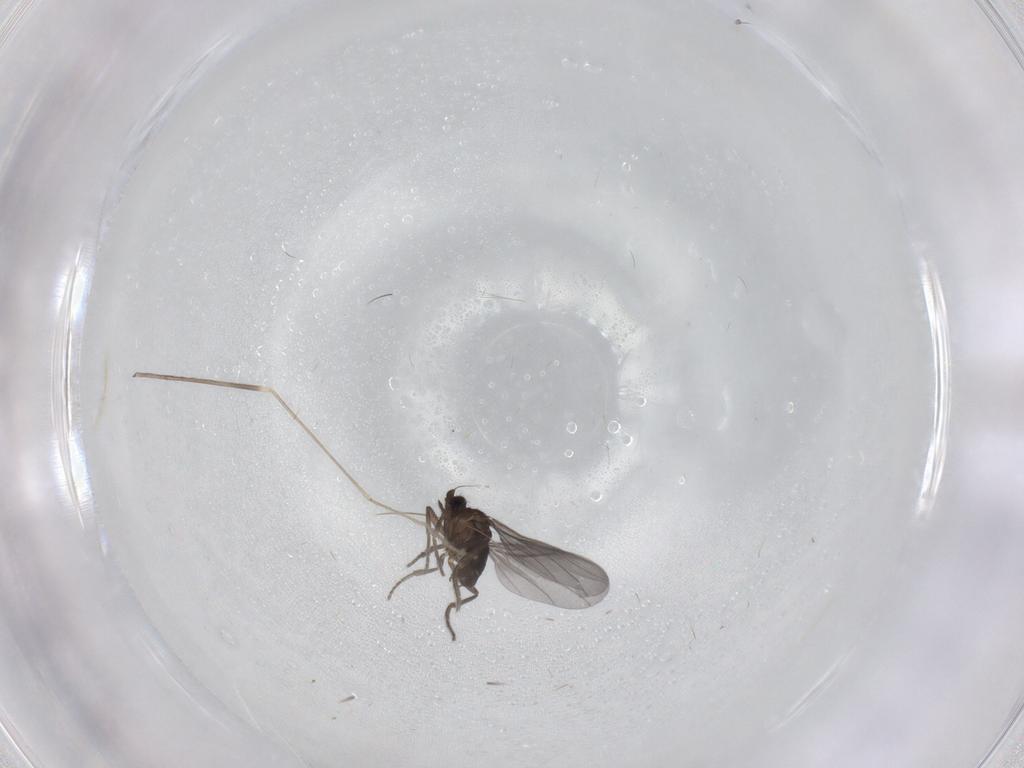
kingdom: Animalia
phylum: Arthropoda
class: Insecta
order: Diptera
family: Phoridae
